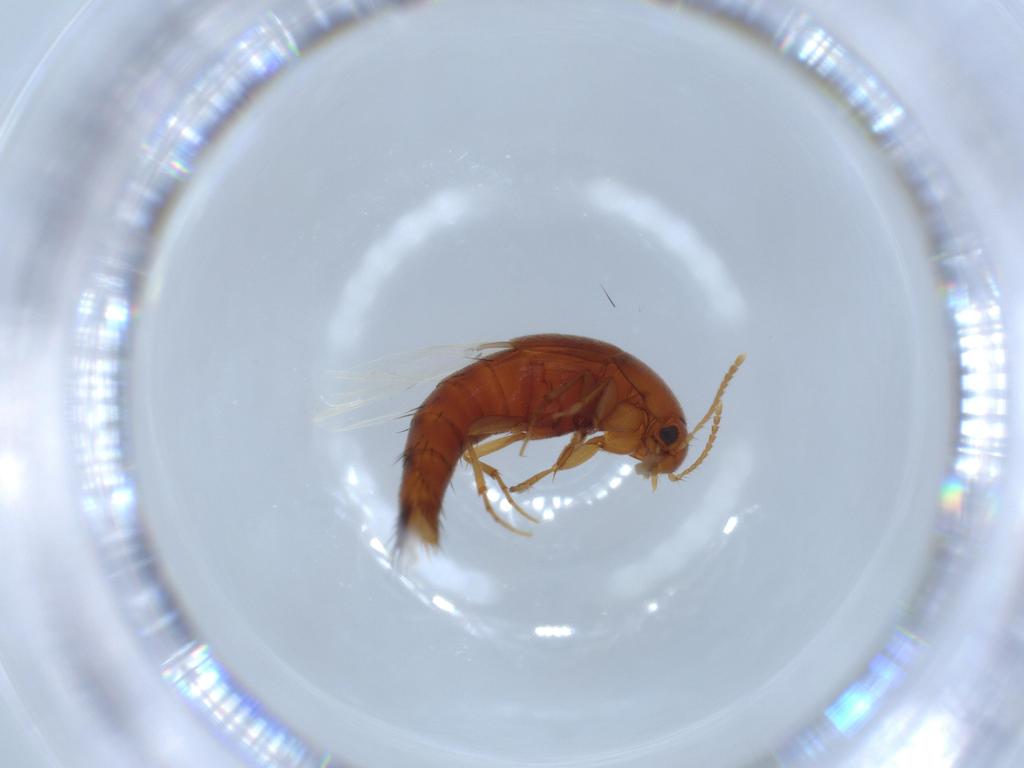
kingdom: Animalia
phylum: Arthropoda
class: Insecta
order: Coleoptera
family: Staphylinidae
